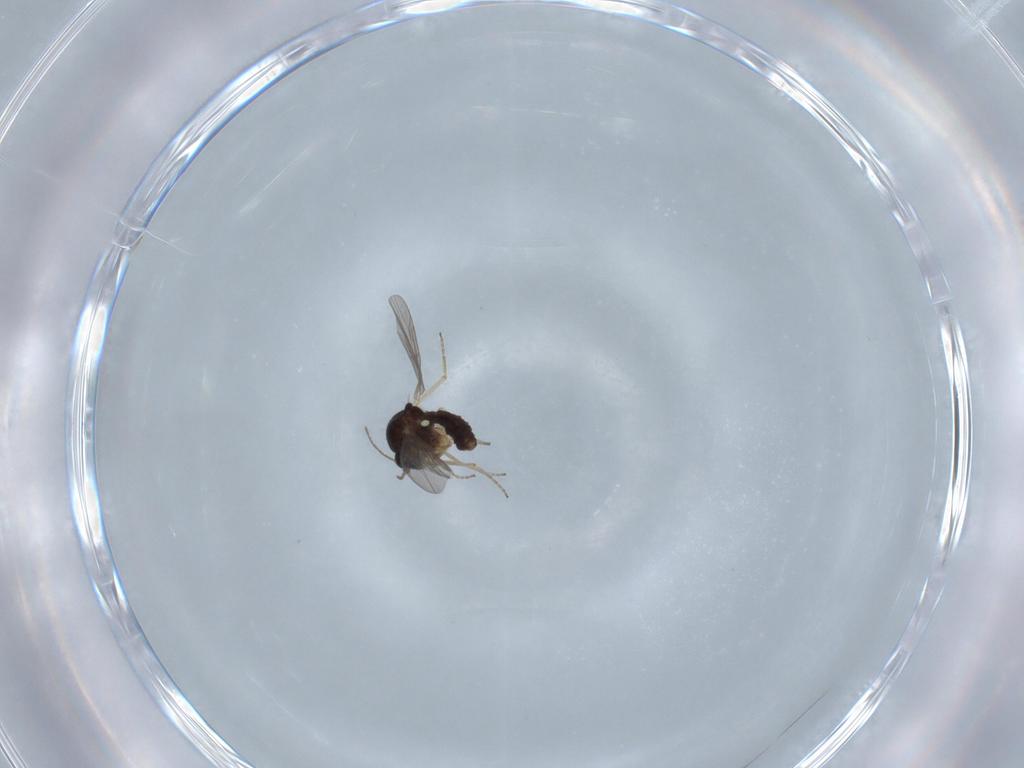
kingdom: Animalia
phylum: Arthropoda
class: Insecta
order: Diptera
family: Ceratopogonidae
